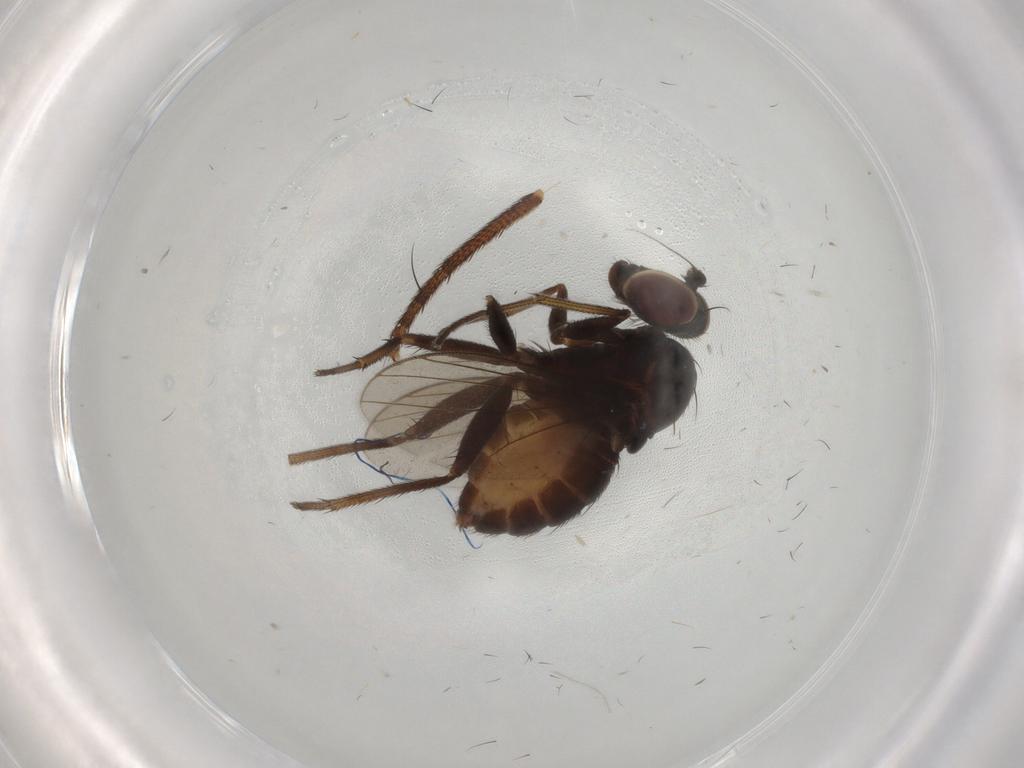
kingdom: Animalia
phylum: Arthropoda
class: Insecta
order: Diptera
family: Dolichopodidae
